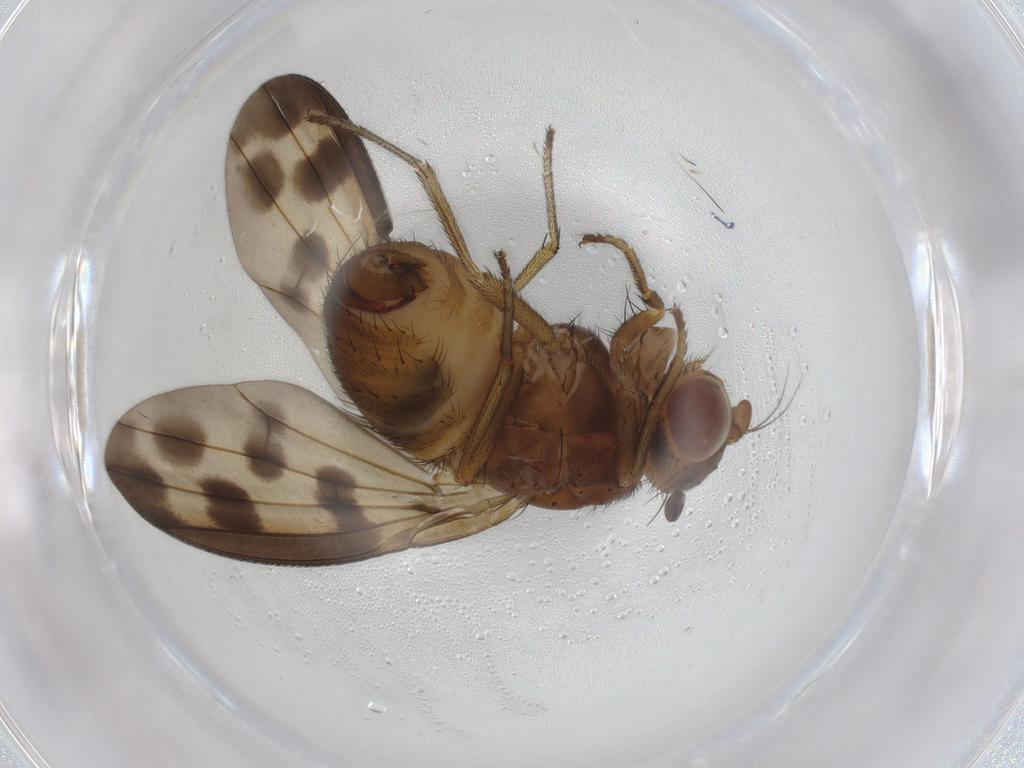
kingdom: Animalia
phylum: Arthropoda
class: Insecta
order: Diptera
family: Sciaridae
